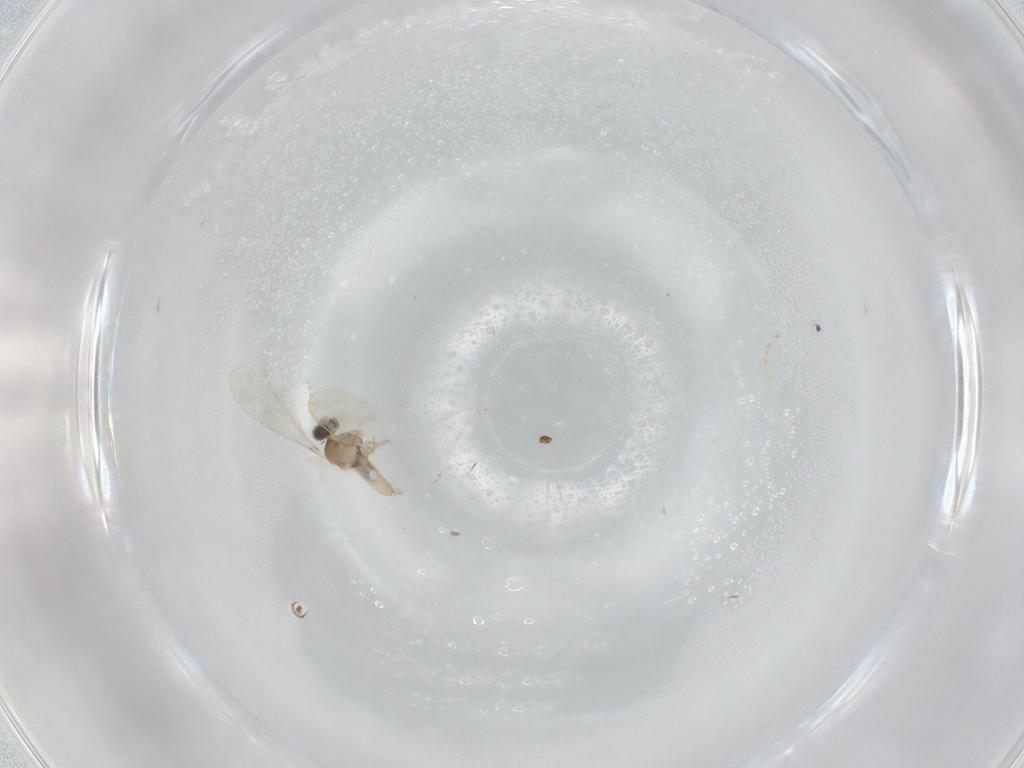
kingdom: Animalia
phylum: Arthropoda
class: Insecta
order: Diptera
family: Cecidomyiidae
